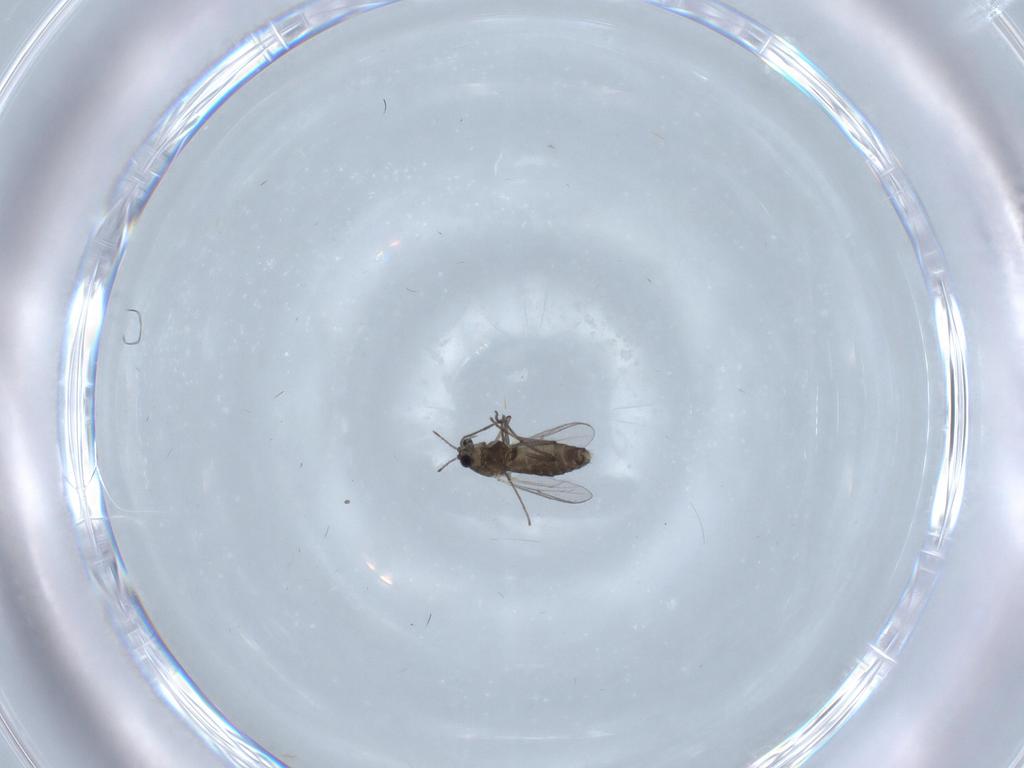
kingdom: Animalia
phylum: Arthropoda
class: Insecta
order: Diptera
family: Chironomidae
